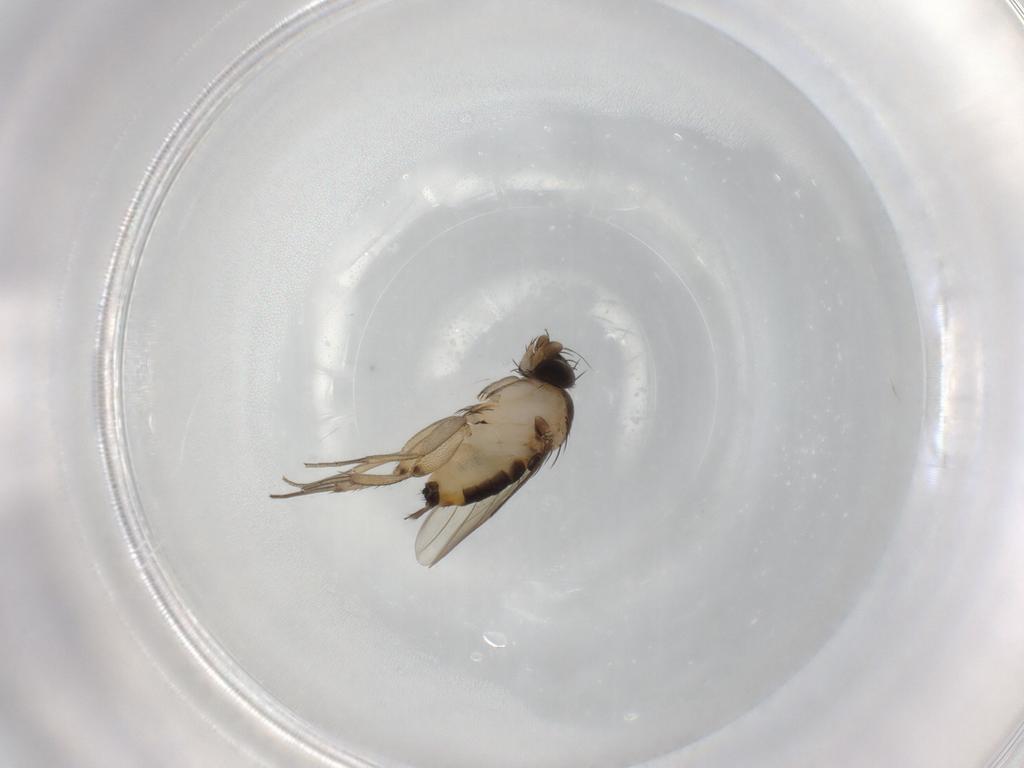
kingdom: Animalia
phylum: Arthropoda
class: Insecta
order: Diptera
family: Phoridae
